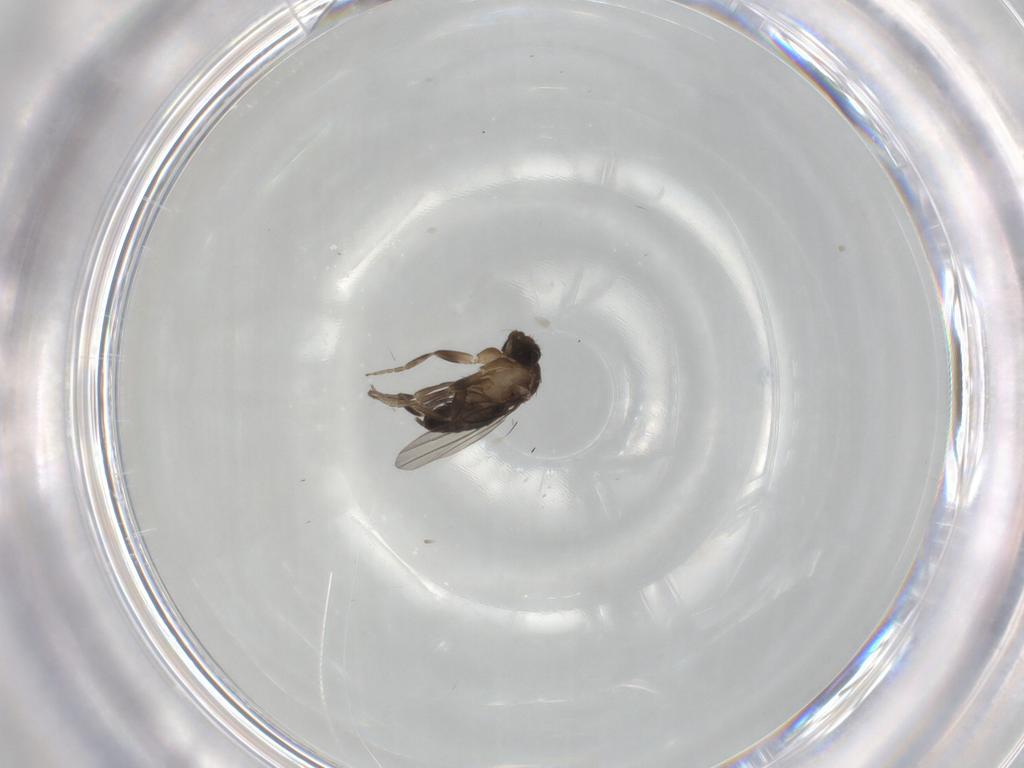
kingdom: Animalia
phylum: Arthropoda
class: Insecta
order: Diptera
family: Phoridae
